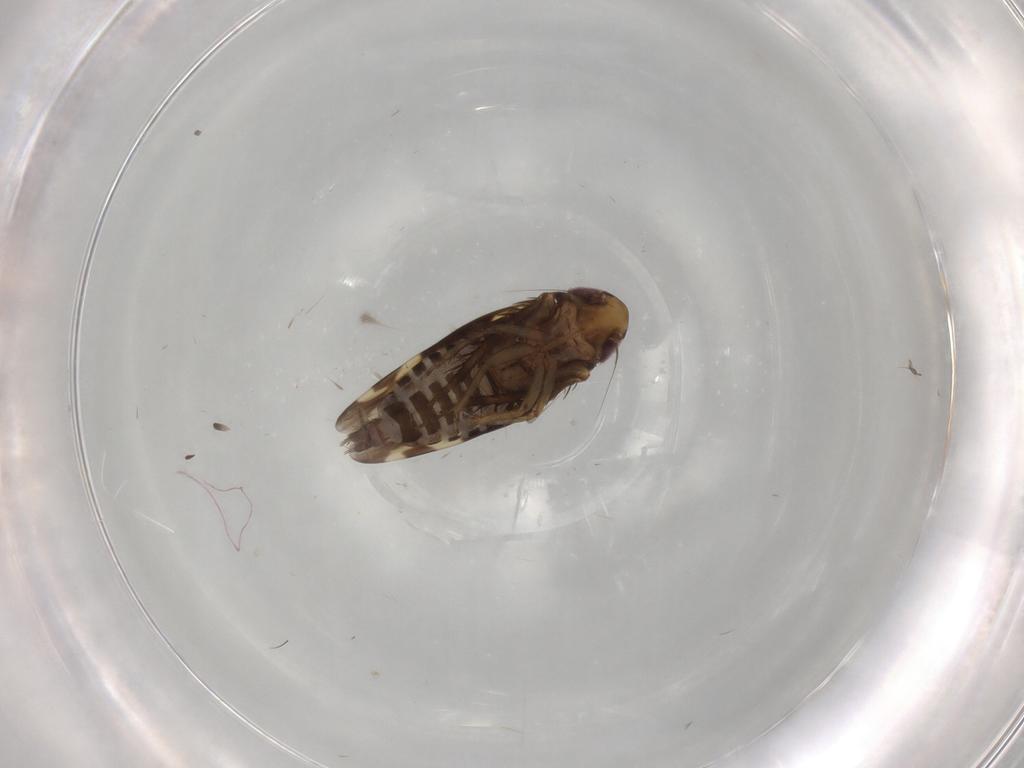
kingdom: Animalia
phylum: Arthropoda
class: Insecta
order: Hemiptera
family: Cicadellidae
